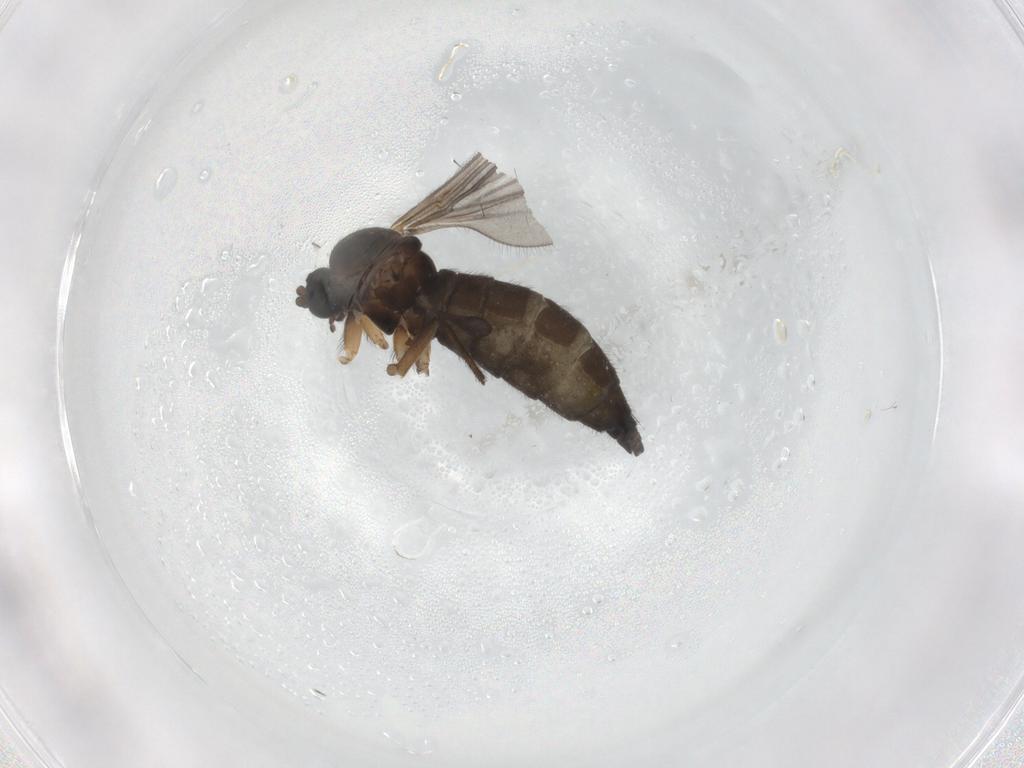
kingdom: Animalia
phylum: Arthropoda
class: Insecta
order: Diptera
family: Sciaridae
